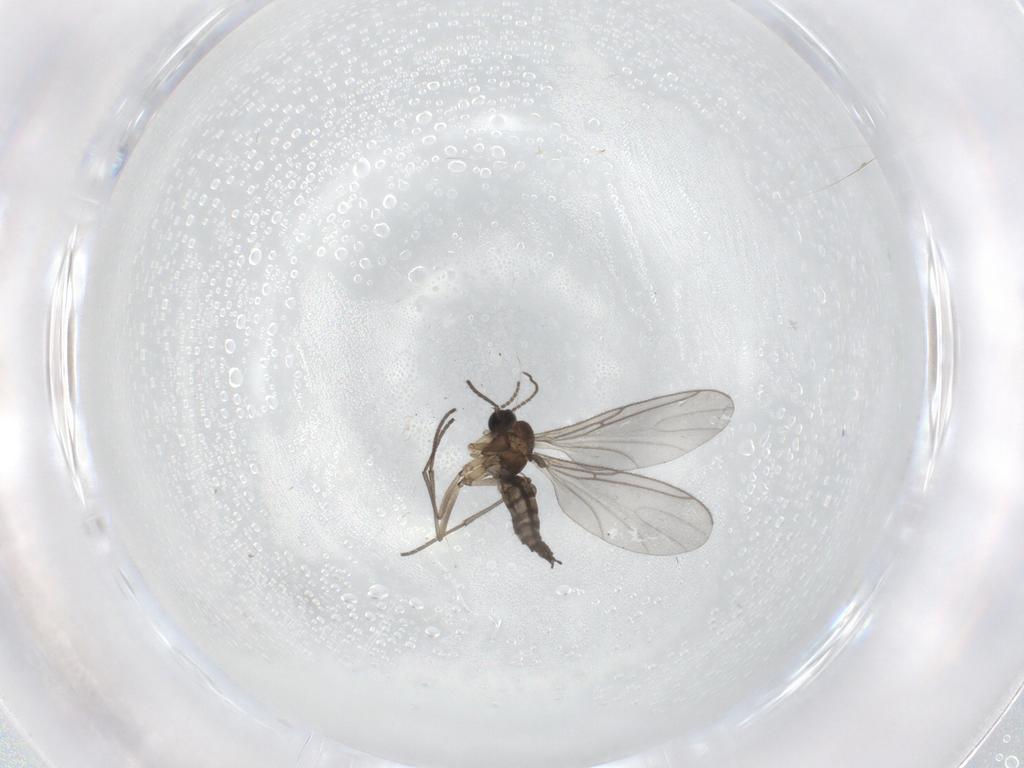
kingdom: Animalia
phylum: Arthropoda
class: Insecta
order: Diptera
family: Sciaridae
